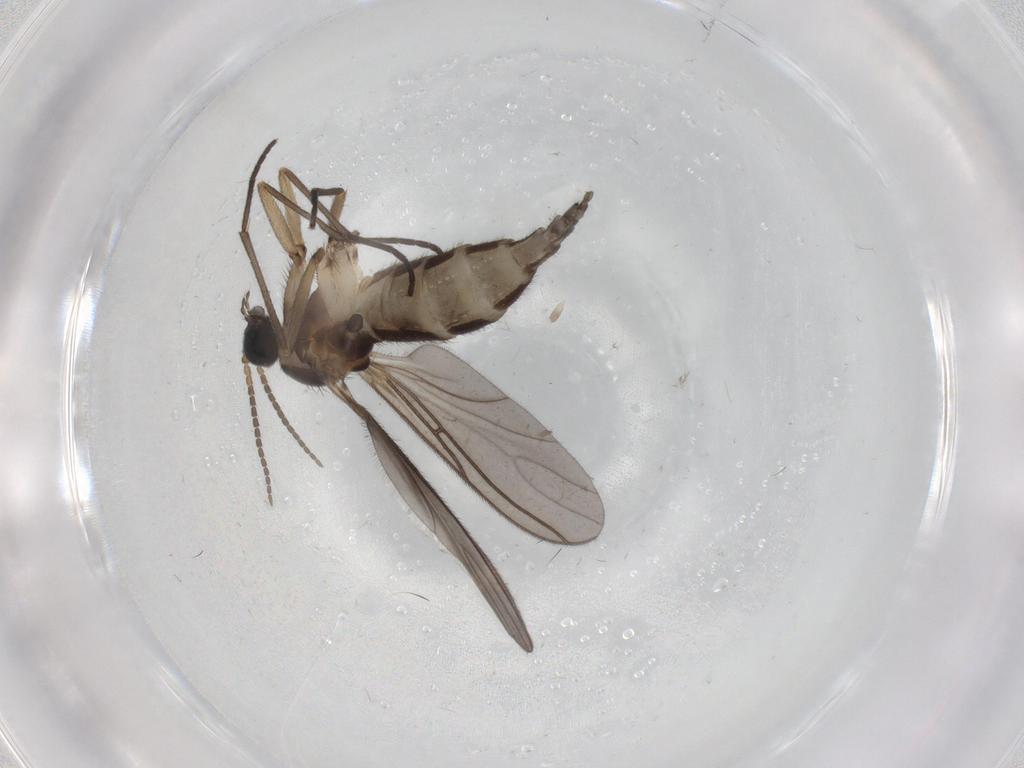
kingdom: Animalia
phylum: Arthropoda
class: Insecta
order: Diptera
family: Sciaridae
